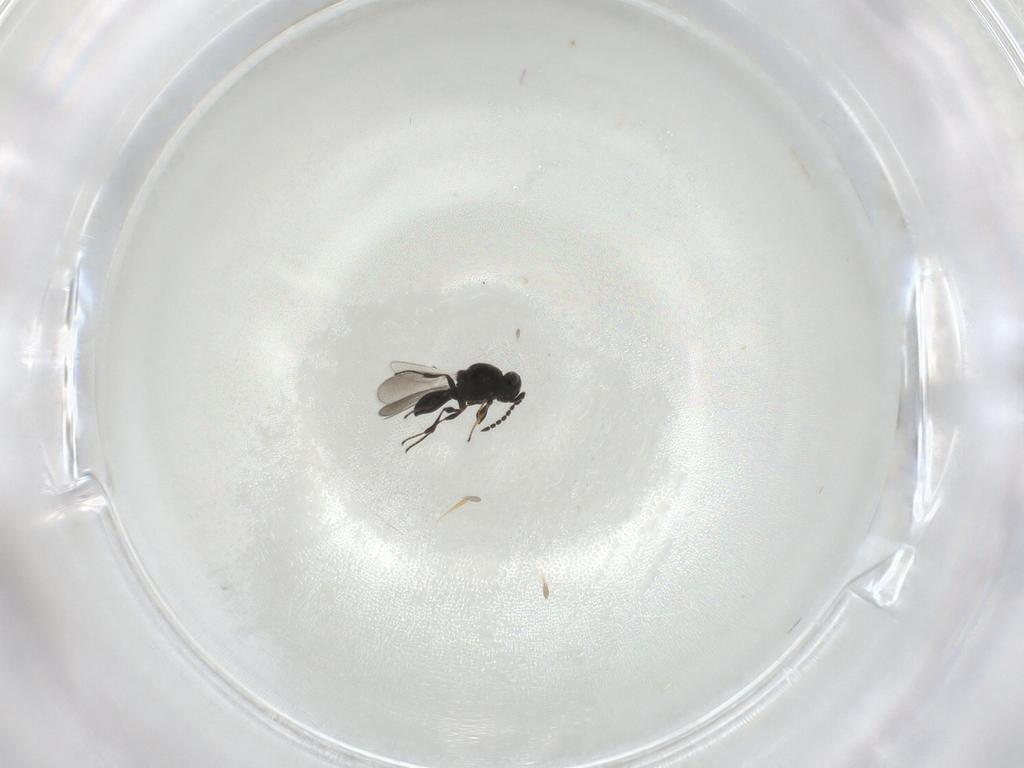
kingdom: Animalia
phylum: Arthropoda
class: Insecta
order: Hymenoptera
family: Platygastridae
